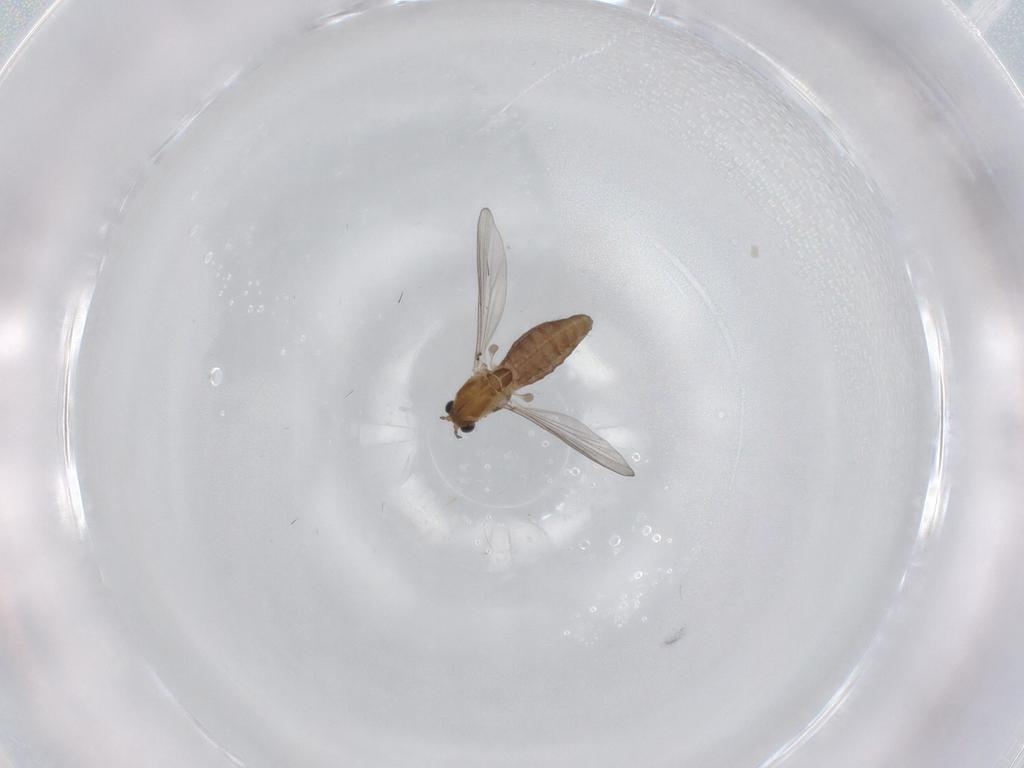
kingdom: Animalia
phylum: Arthropoda
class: Insecta
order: Diptera
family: Chironomidae
